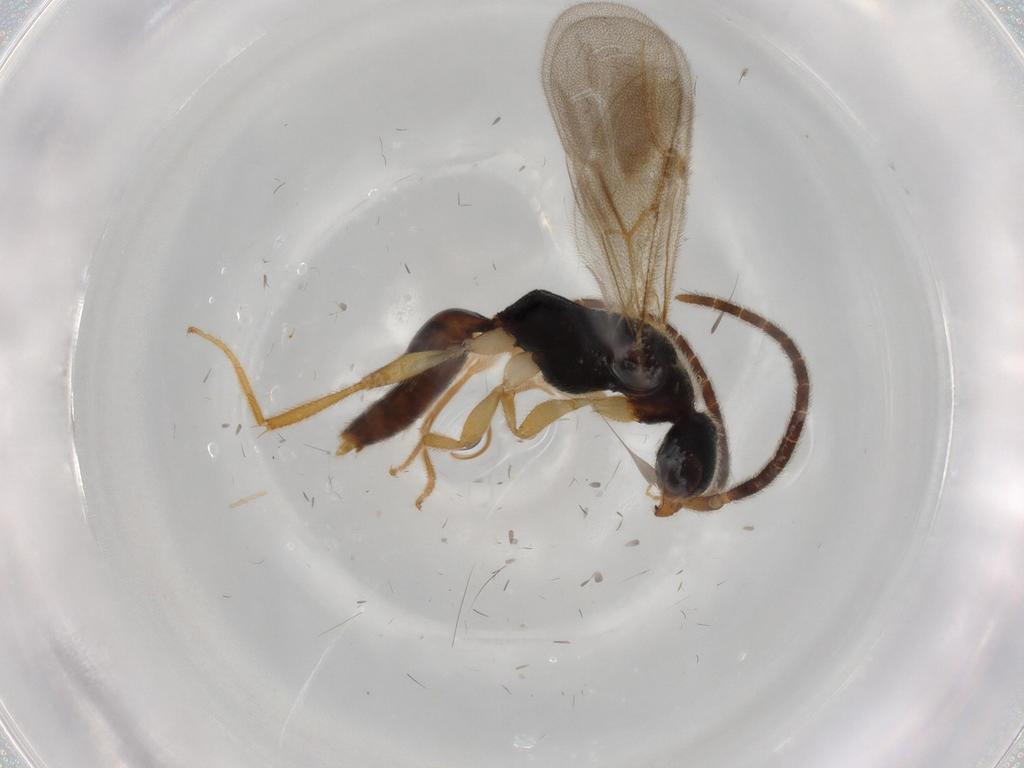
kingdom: Animalia
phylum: Arthropoda
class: Insecta
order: Hymenoptera
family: Bethylidae
